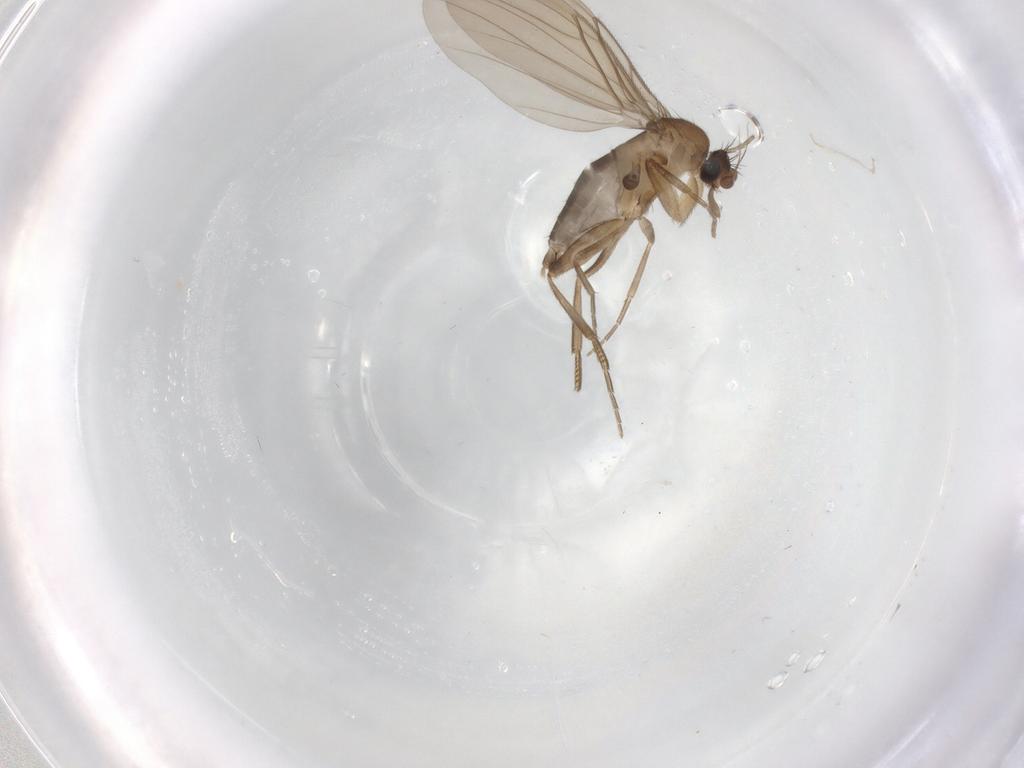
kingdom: Animalia
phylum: Arthropoda
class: Insecta
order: Diptera
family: Phoridae
